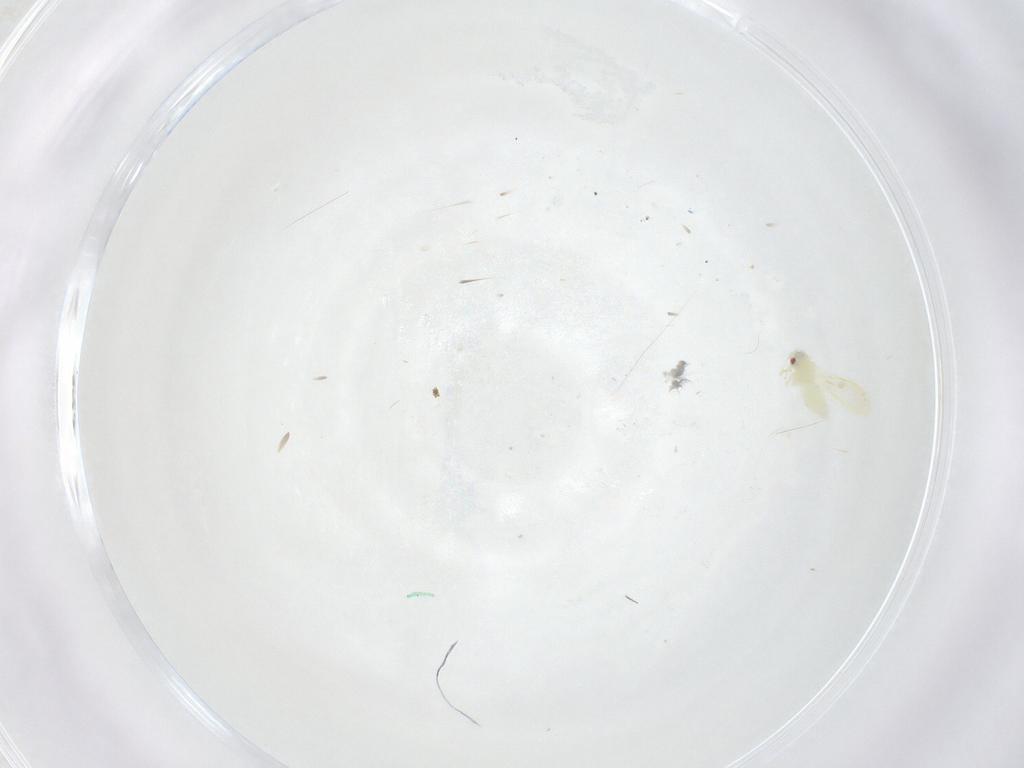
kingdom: Animalia
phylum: Arthropoda
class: Insecta
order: Hemiptera
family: Aleyrodidae
